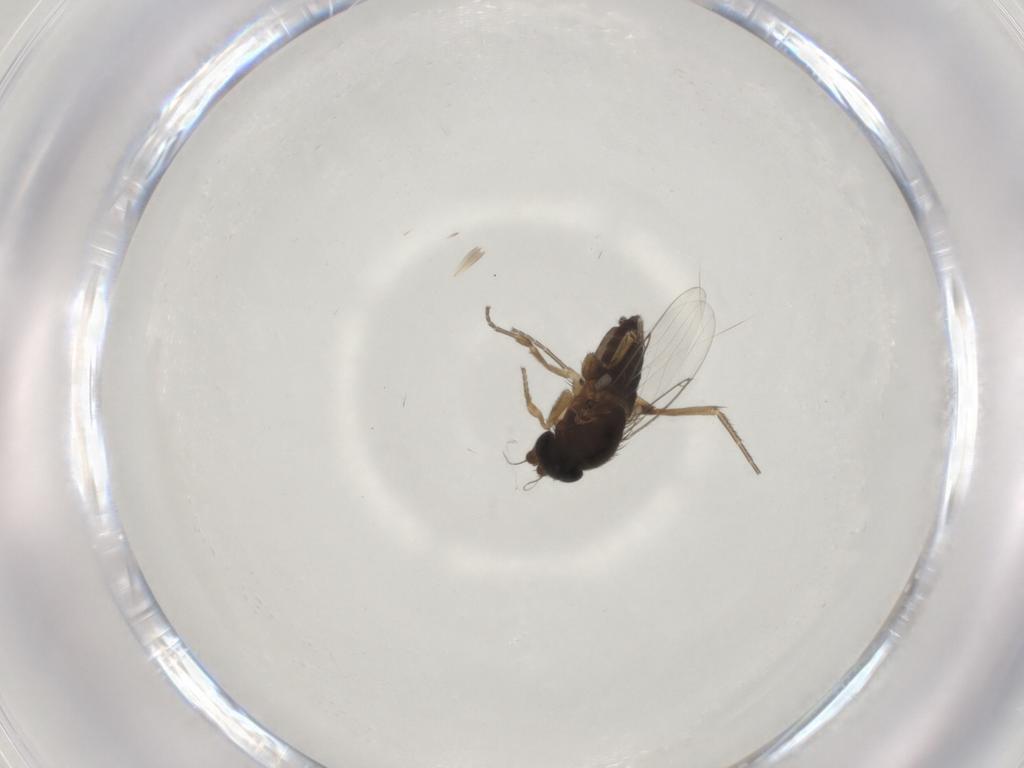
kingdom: Animalia
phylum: Arthropoda
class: Insecta
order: Diptera
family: Phoridae
